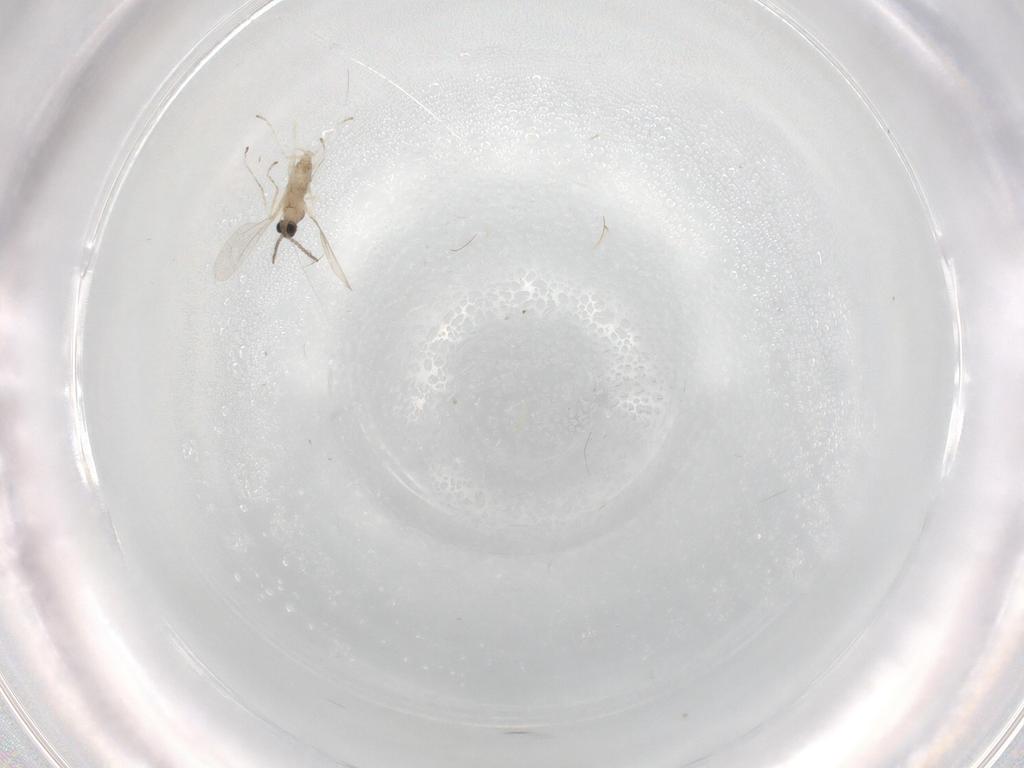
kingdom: Animalia
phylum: Arthropoda
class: Insecta
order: Diptera
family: Cecidomyiidae
